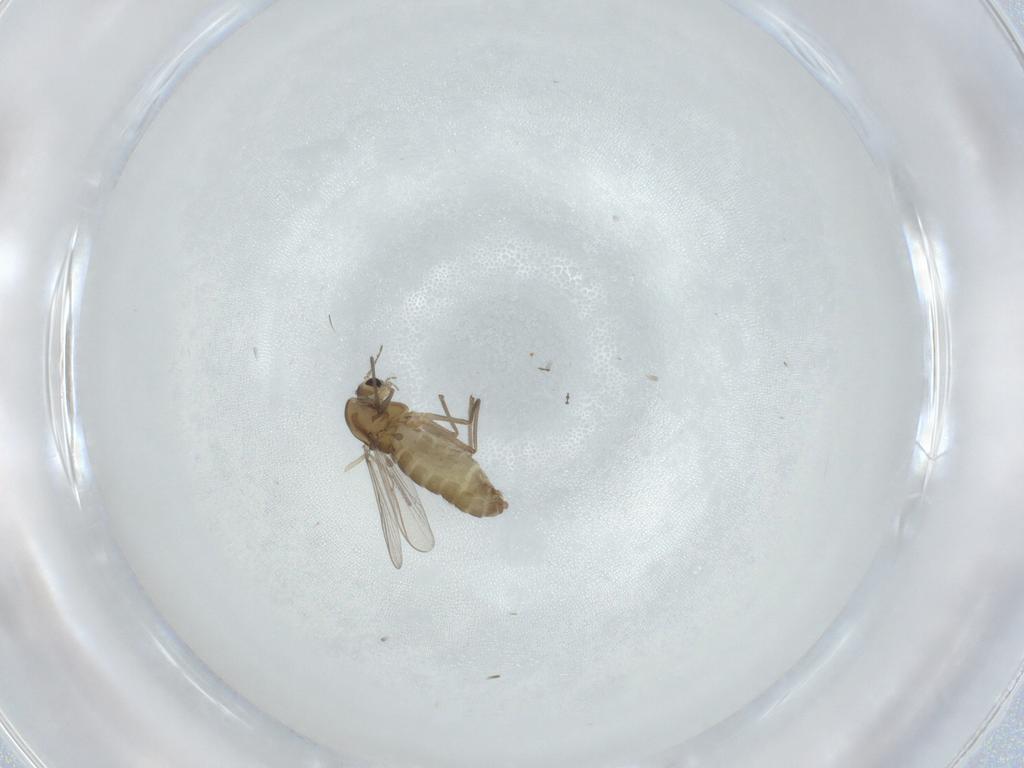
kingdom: Animalia
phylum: Arthropoda
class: Insecta
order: Diptera
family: Chironomidae
